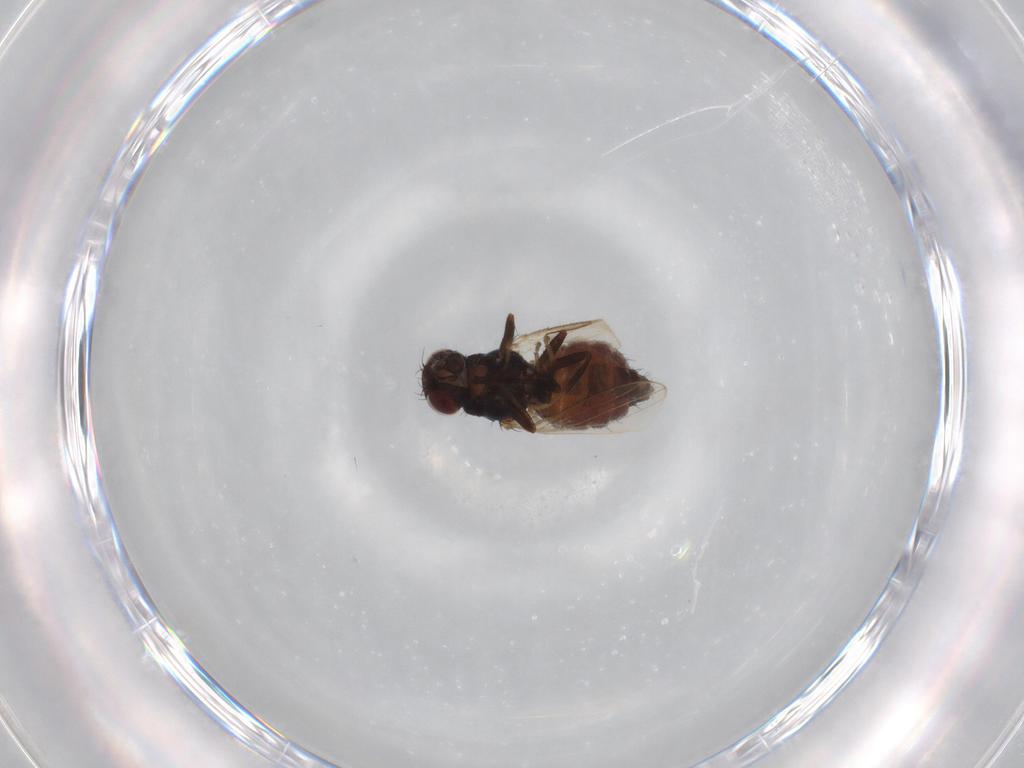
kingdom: Animalia
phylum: Arthropoda
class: Insecta
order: Diptera
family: Carnidae
